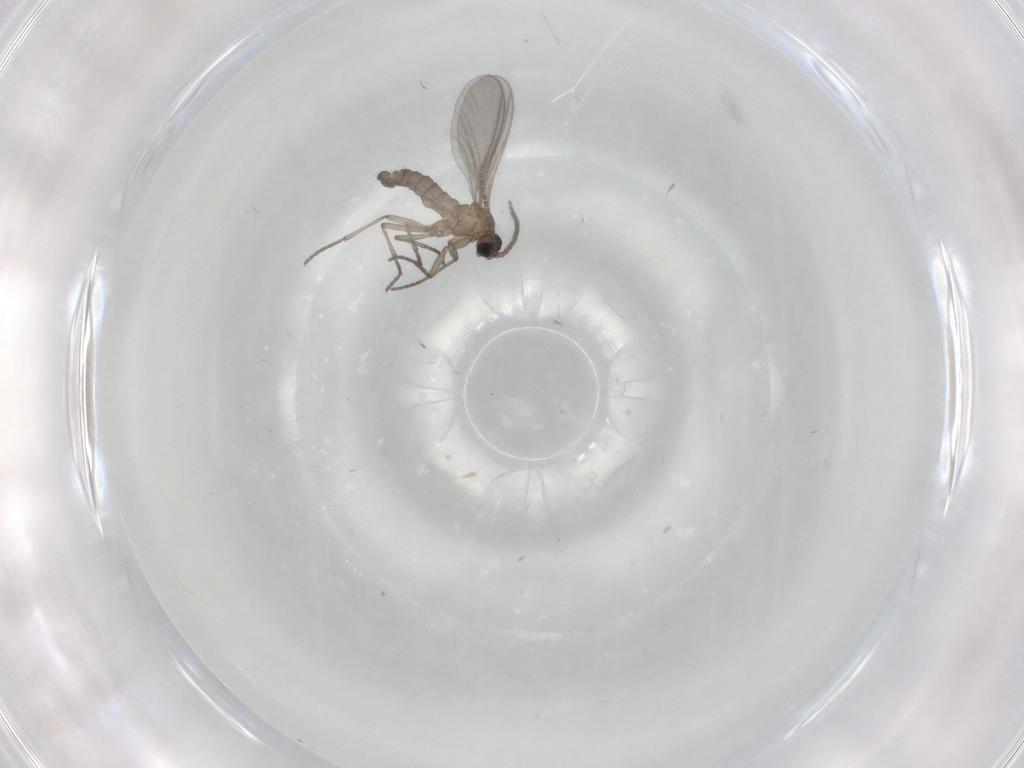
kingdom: Animalia
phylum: Arthropoda
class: Insecta
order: Diptera
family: Sciaridae
